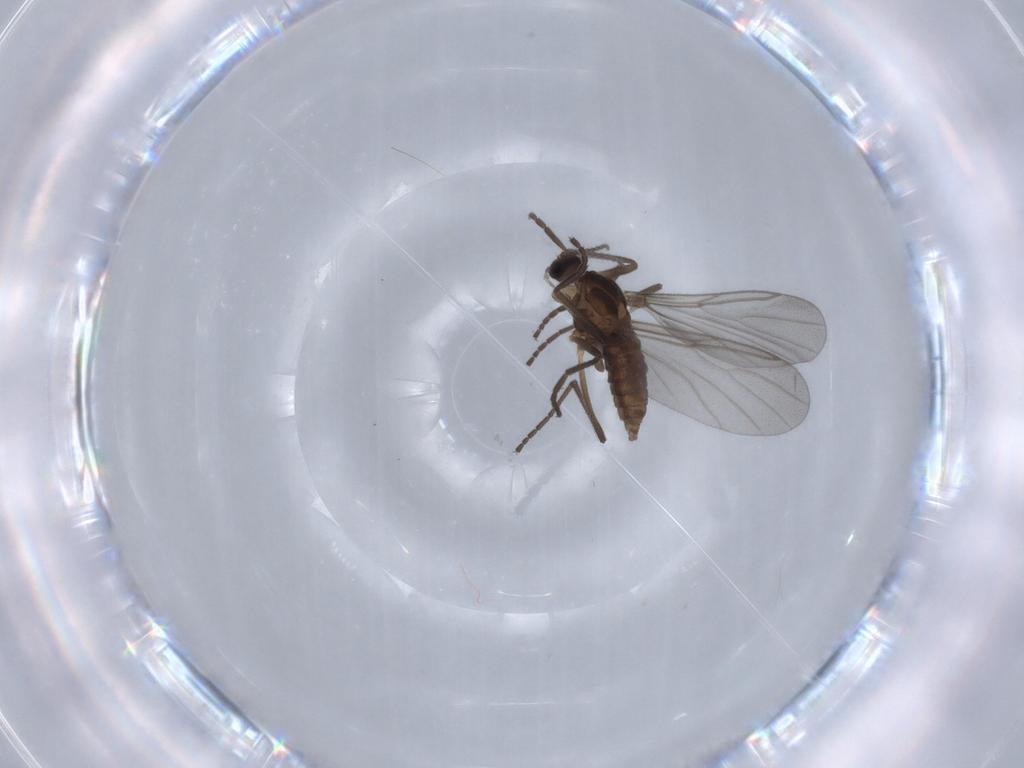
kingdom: Animalia
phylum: Arthropoda
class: Insecta
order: Diptera
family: Cecidomyiidae
